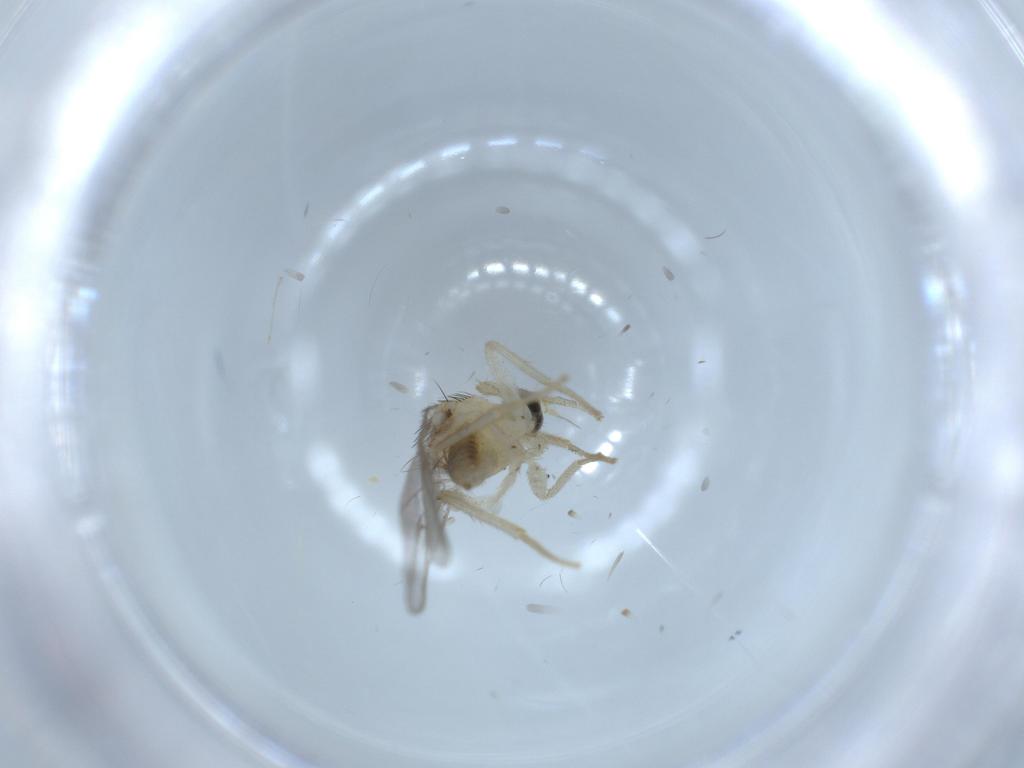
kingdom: Animalia
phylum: Arthropoda
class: Insecta
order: Diptera
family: Hybotidae
